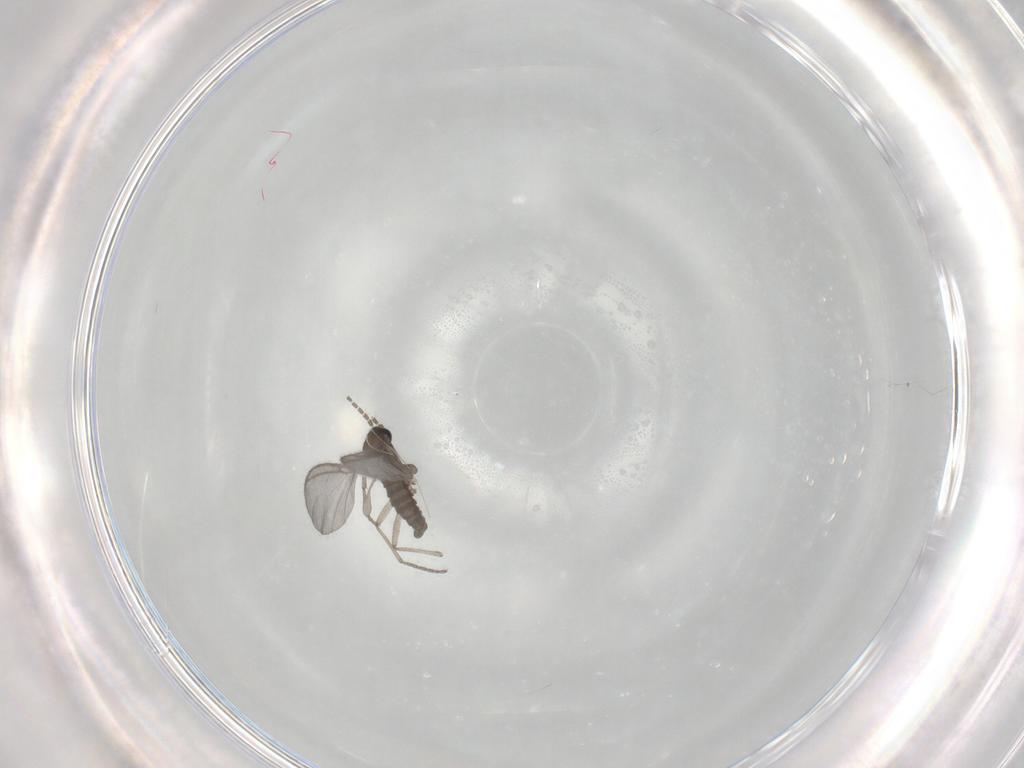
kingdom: Animalia
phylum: Arthropoda
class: Insecta
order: Diptera
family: Sciaridae
